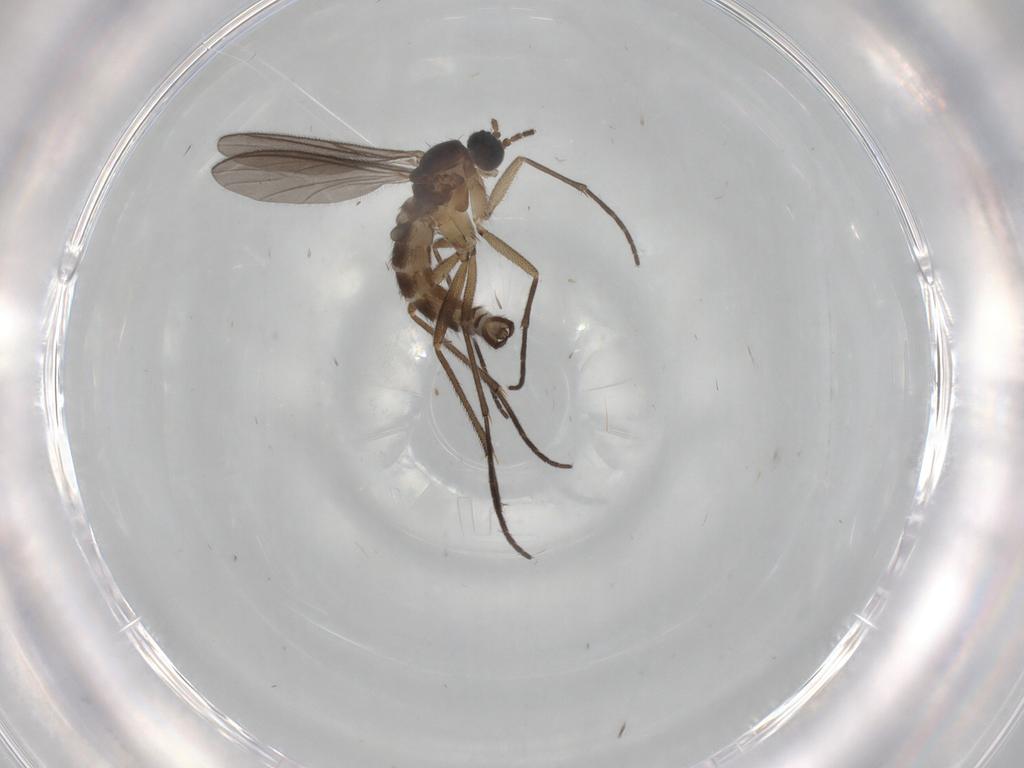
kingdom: Animalia
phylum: Arthropoda
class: Insecta
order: Diptera
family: Sciaridae
